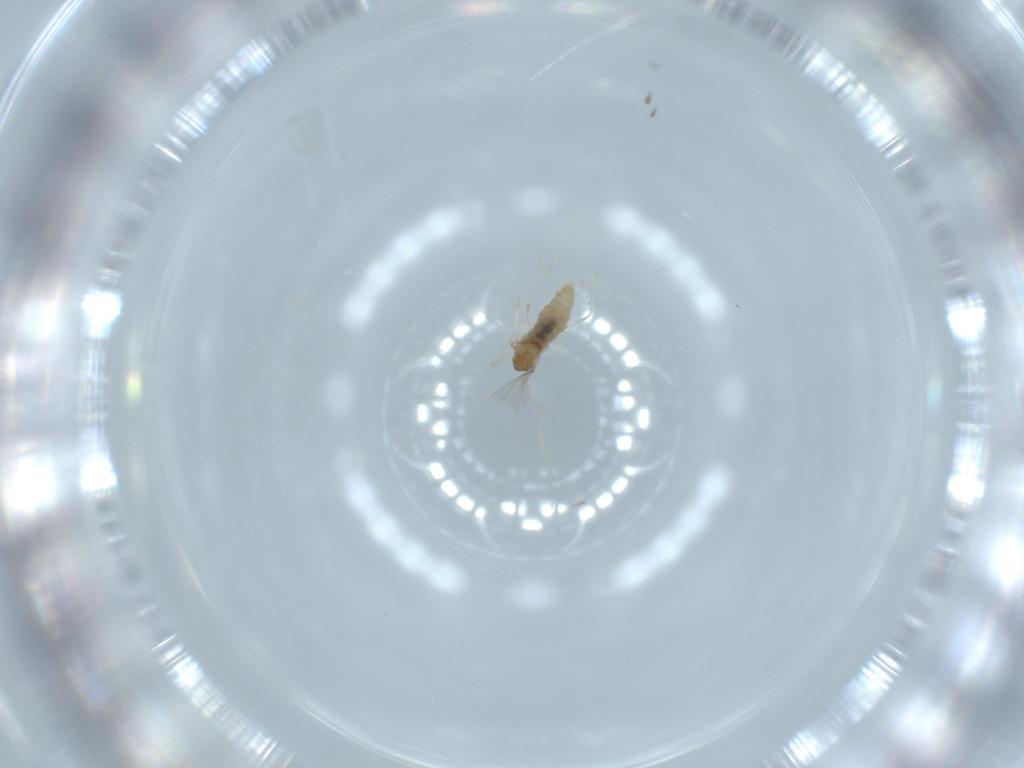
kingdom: Animalia
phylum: Arthropoda
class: Insecta
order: Diptera
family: Cecidomyiidae
